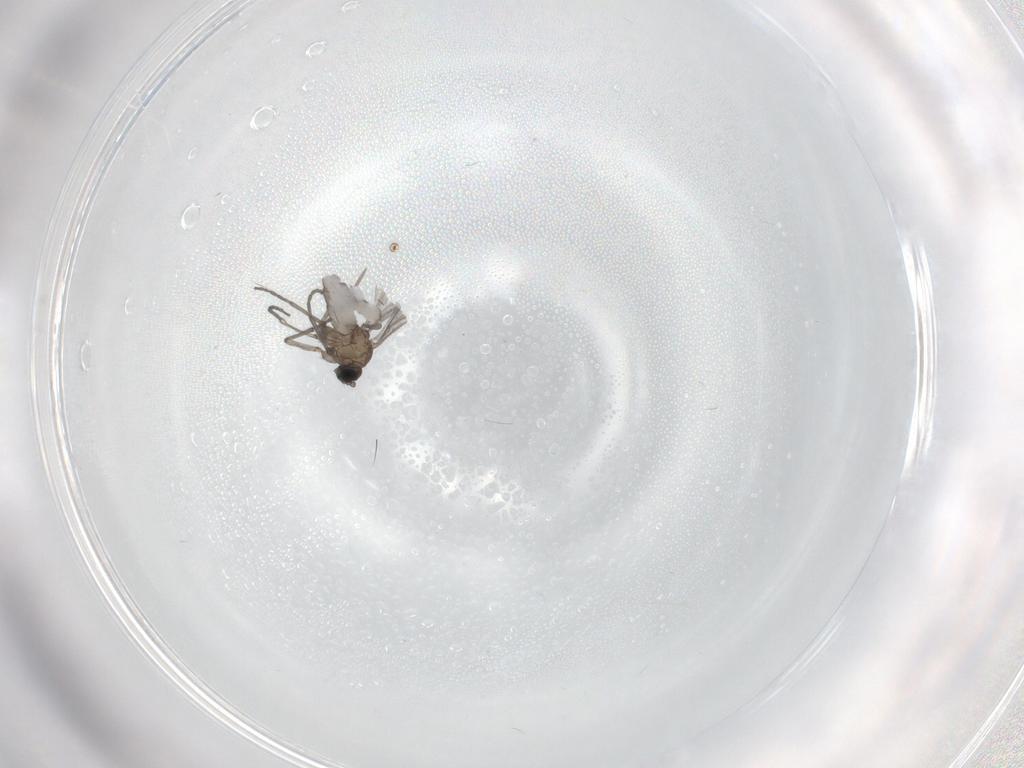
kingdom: Animalia
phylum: Arthropoda
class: Insecta
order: Diptera
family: Sciaridae
